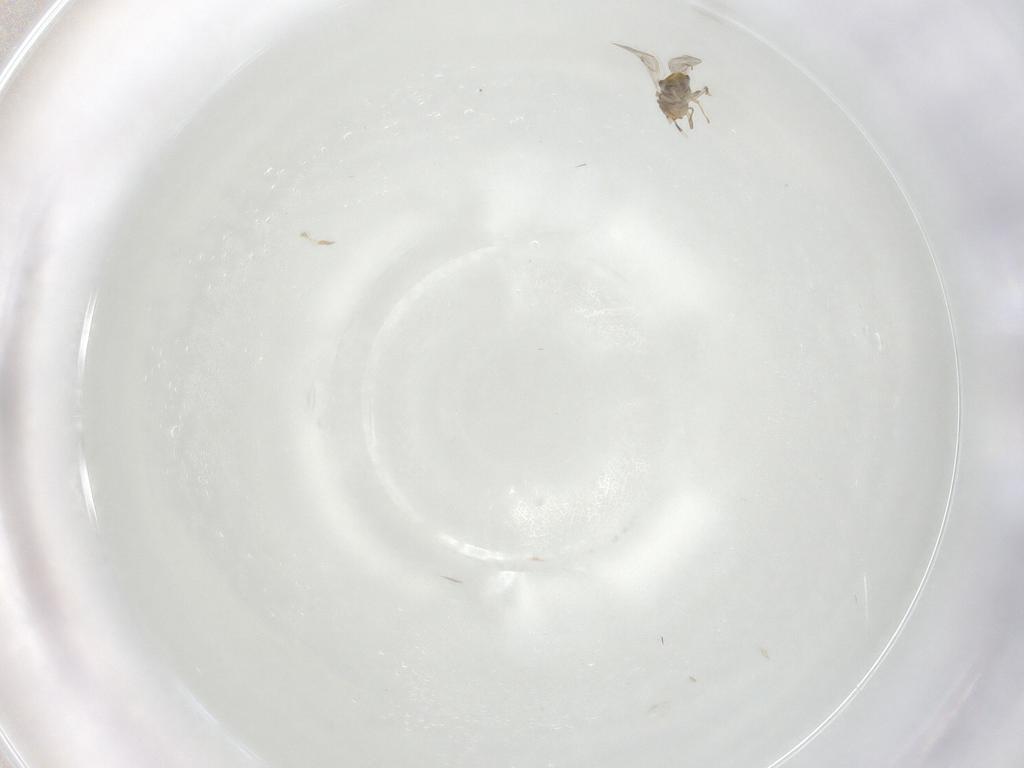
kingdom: Animalia
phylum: Arthropoda
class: Insecta
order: Hymenoptera
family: Encyrtidae
